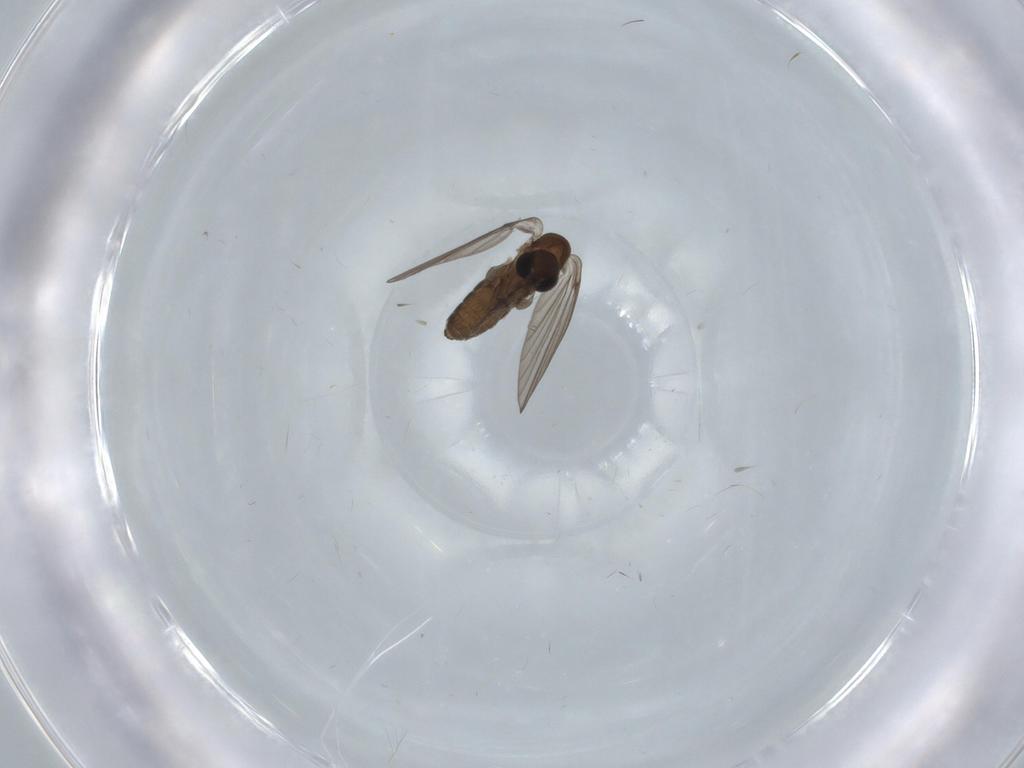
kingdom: Animalia
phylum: Arthropoda
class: Insecta
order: Diptera
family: Psychodidae
